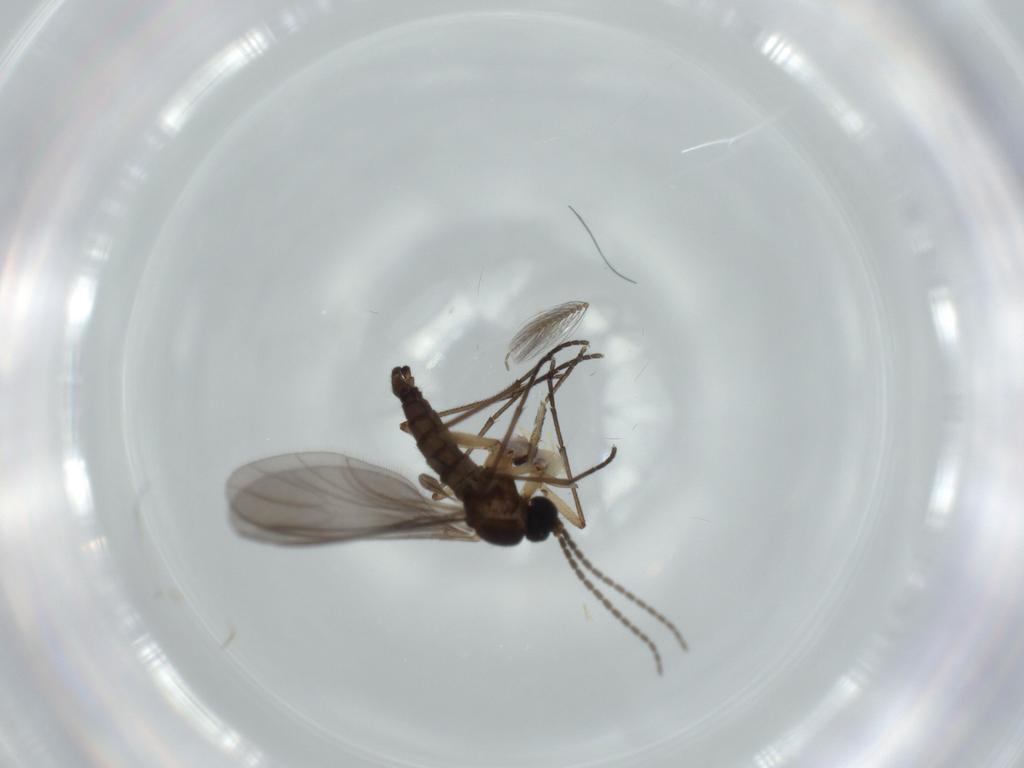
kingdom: Animalia
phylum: Arthropoda
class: Insecta
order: Diptera
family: Sciaridae
